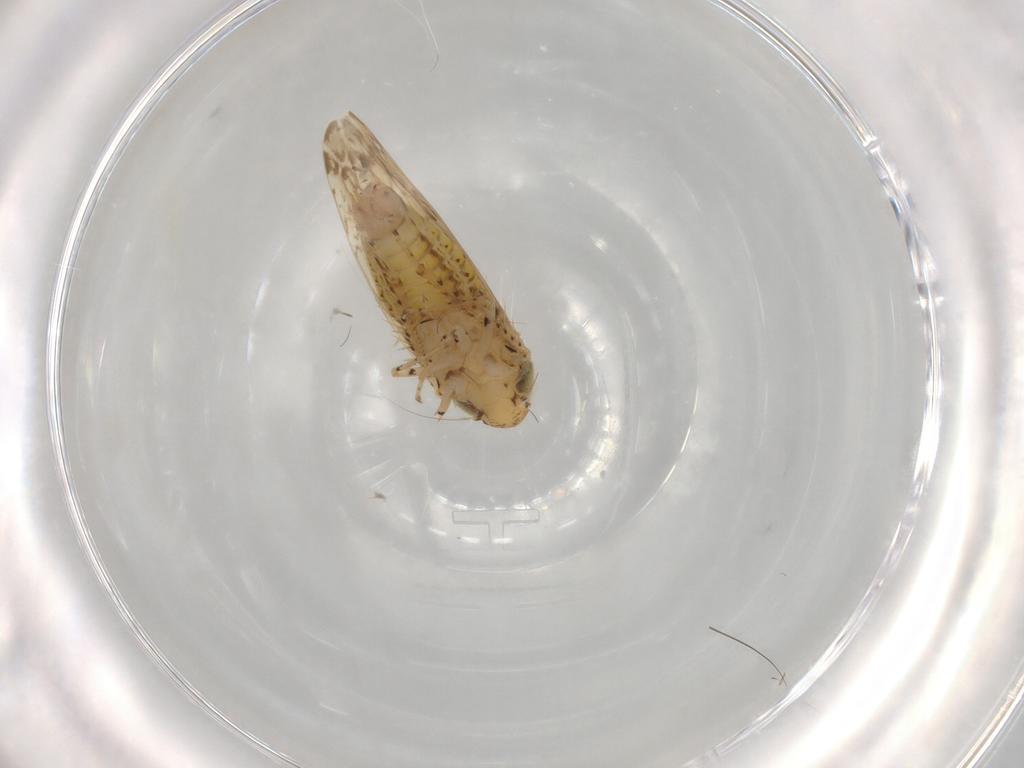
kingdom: Animalia
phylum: Arthropoda
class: Insecta
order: Hemiptera
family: Cicadellidae
